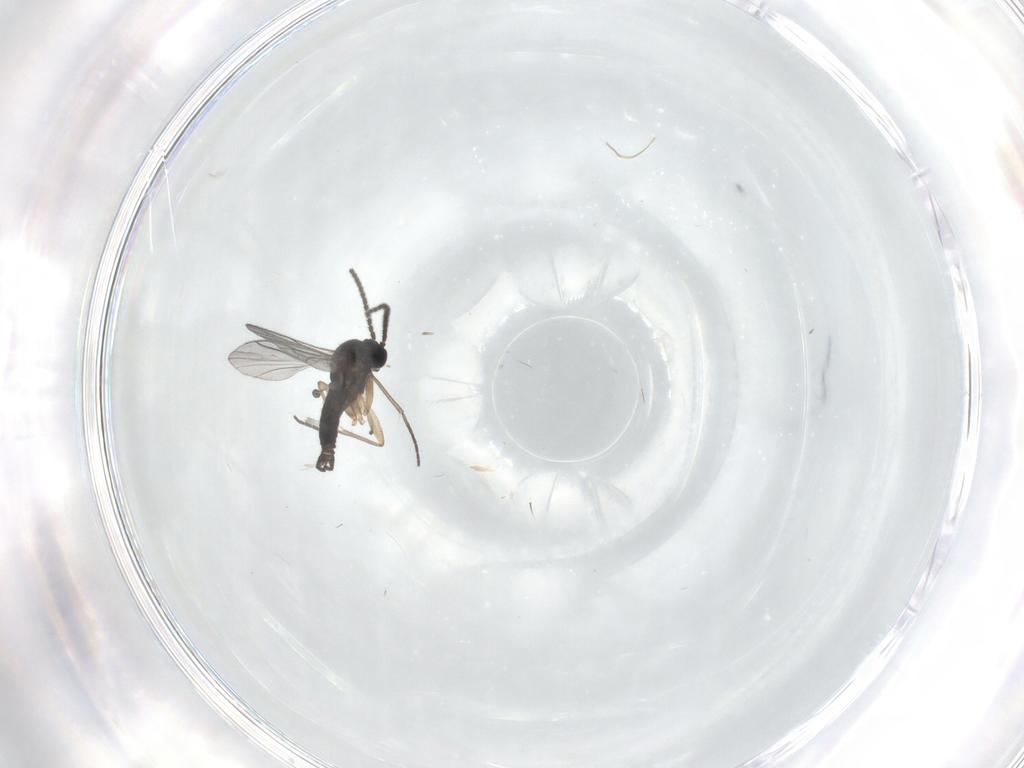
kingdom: Animalia
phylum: Arthropoda
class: Insecta
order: Diptera
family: Sciaridae
